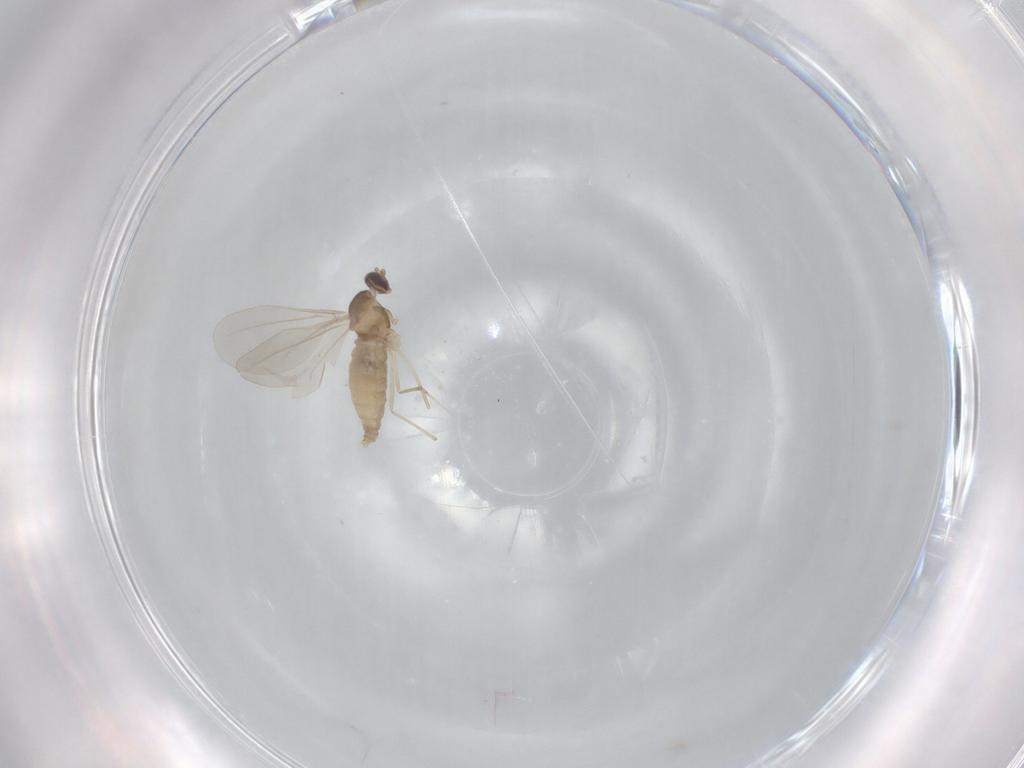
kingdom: Animalia
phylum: Arthropoda
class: Insecta
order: Diptera
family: Cecidomyiidae
